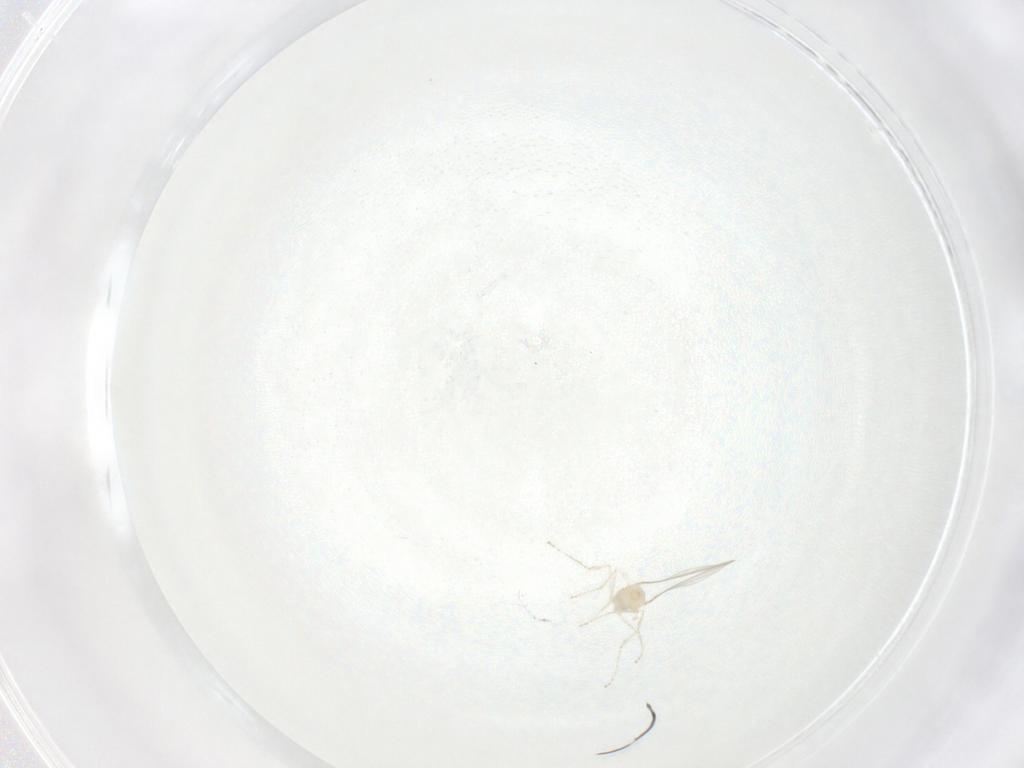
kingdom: Animalia
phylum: Arthropoda
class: Insecta
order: Diptera
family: Cecidomyiidae
